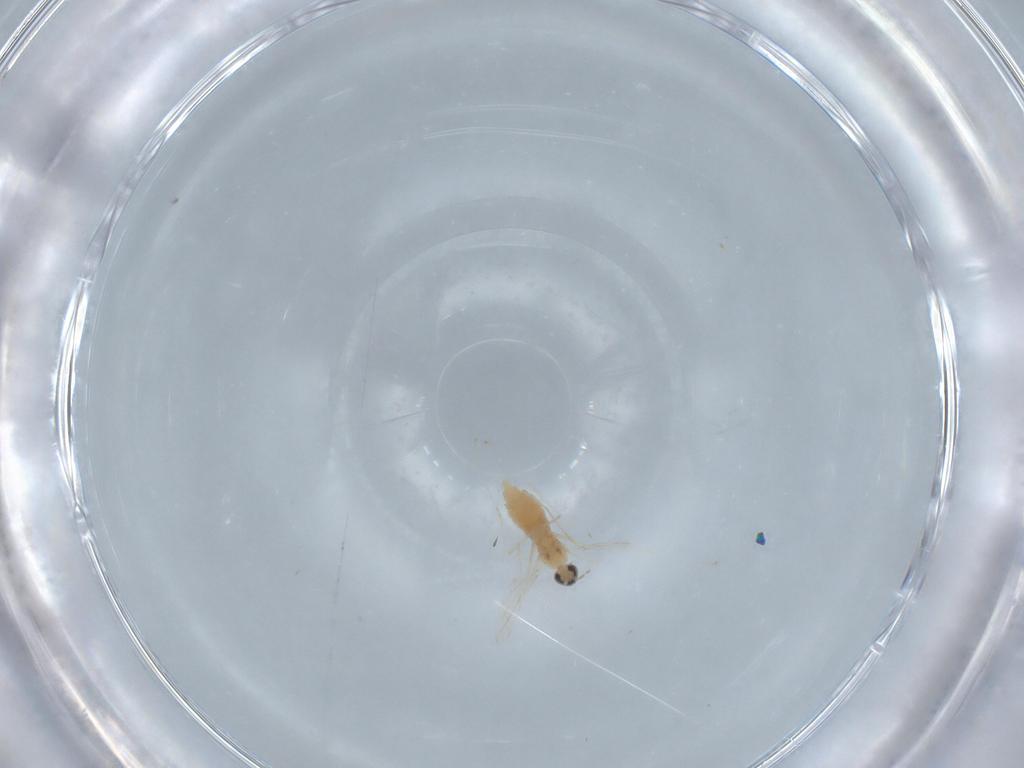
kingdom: Animalia
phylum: Arthropoda
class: Insecta
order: Diptera
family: Cecidomyiidae
